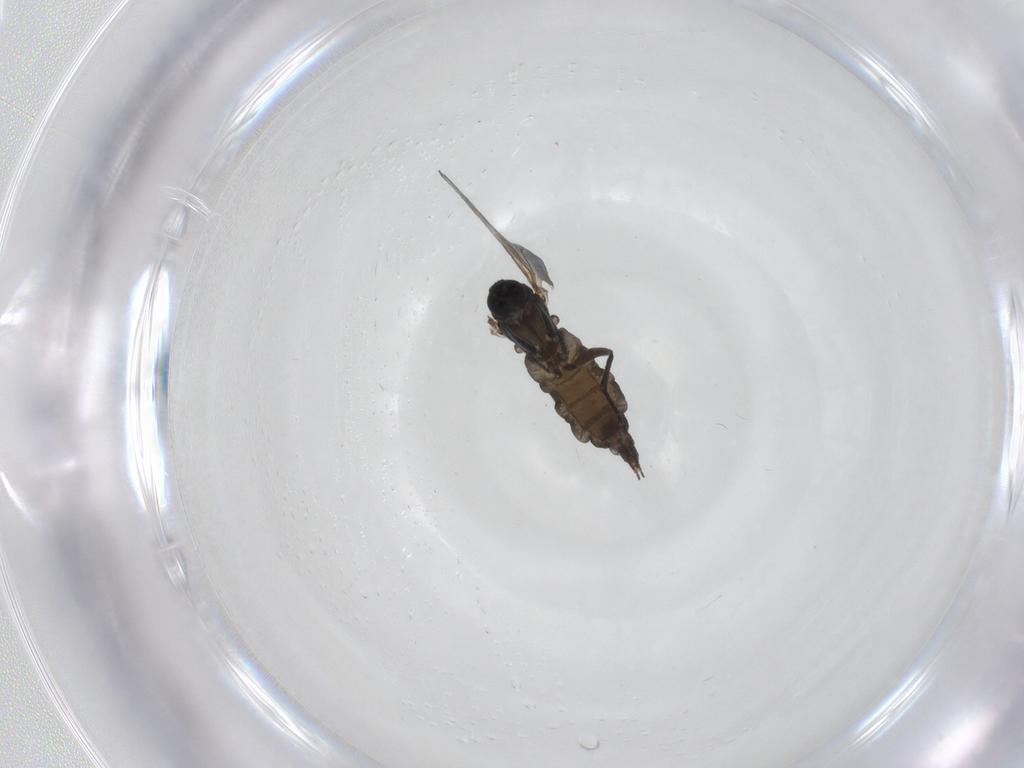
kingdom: Animalia
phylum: Arthropoda
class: Insecta
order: Diptera
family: Sciaridae
